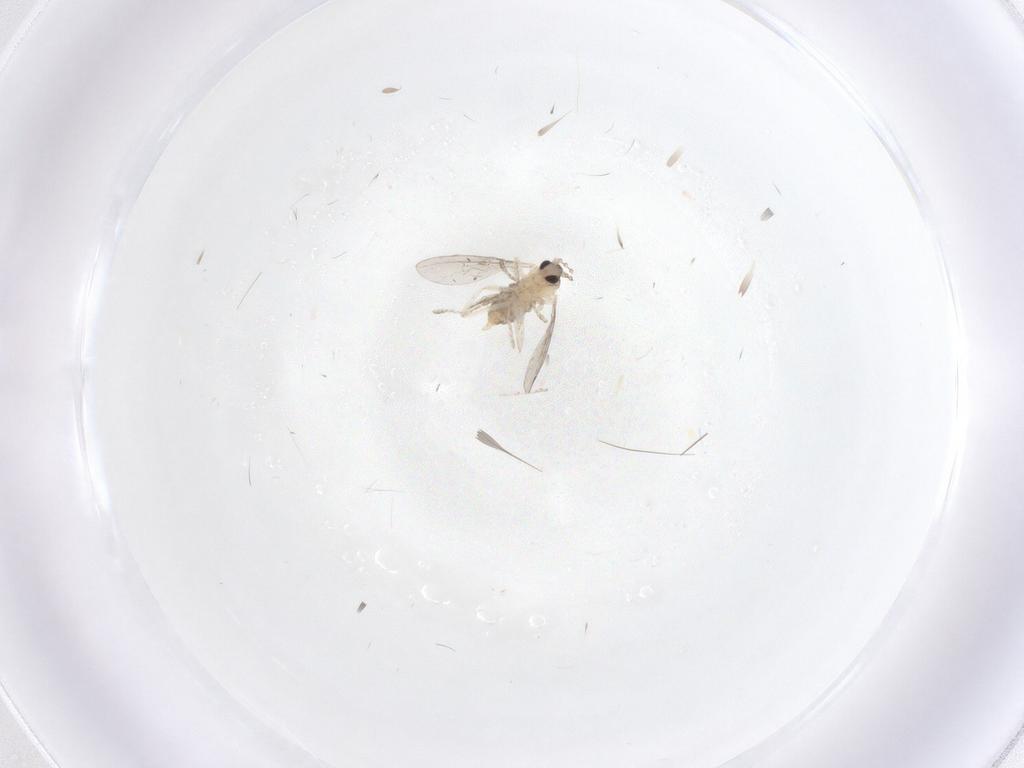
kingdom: Animalia
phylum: Arthropoda
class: Insecta
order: Diptera
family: Cecidomyiidae
